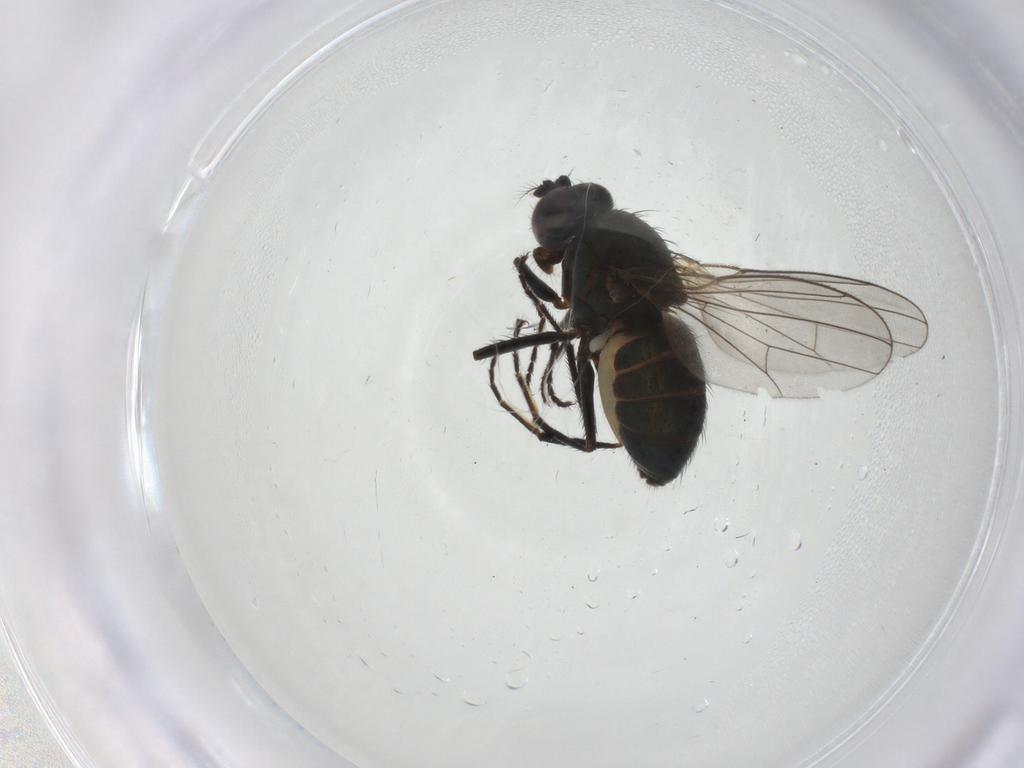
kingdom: Animalia
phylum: Arthropoda
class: Insecta
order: Diptera
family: Ephydridae
